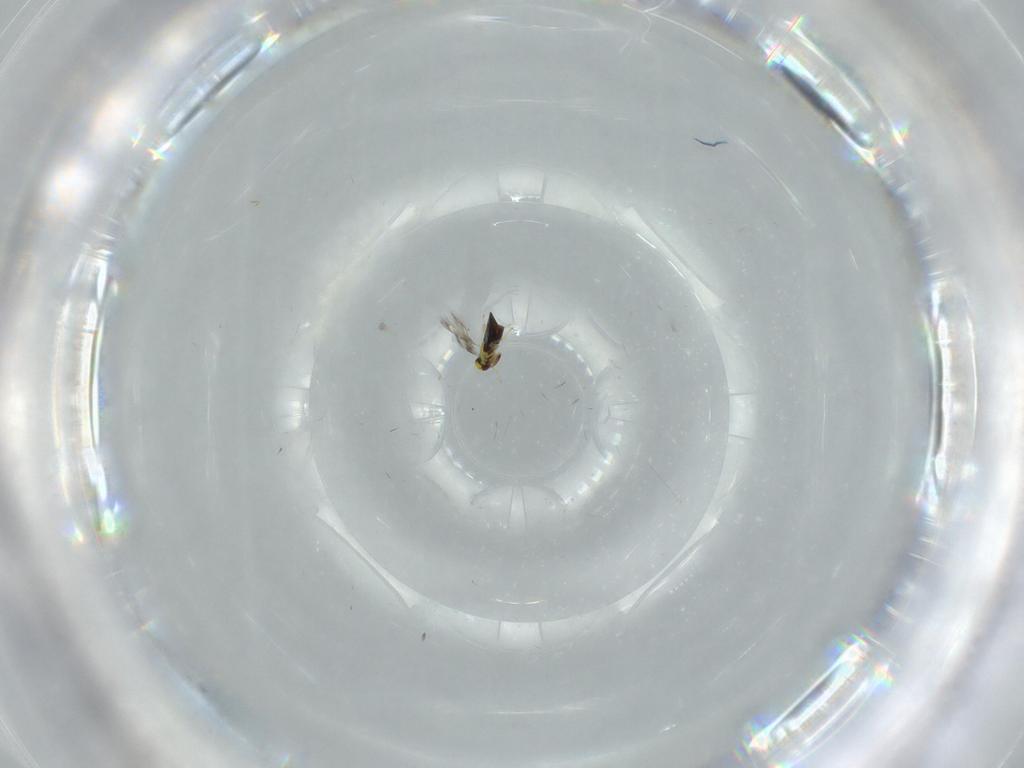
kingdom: Animalia
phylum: Arthropoda
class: Insecta
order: Hymenoptera
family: Signiphoridae
